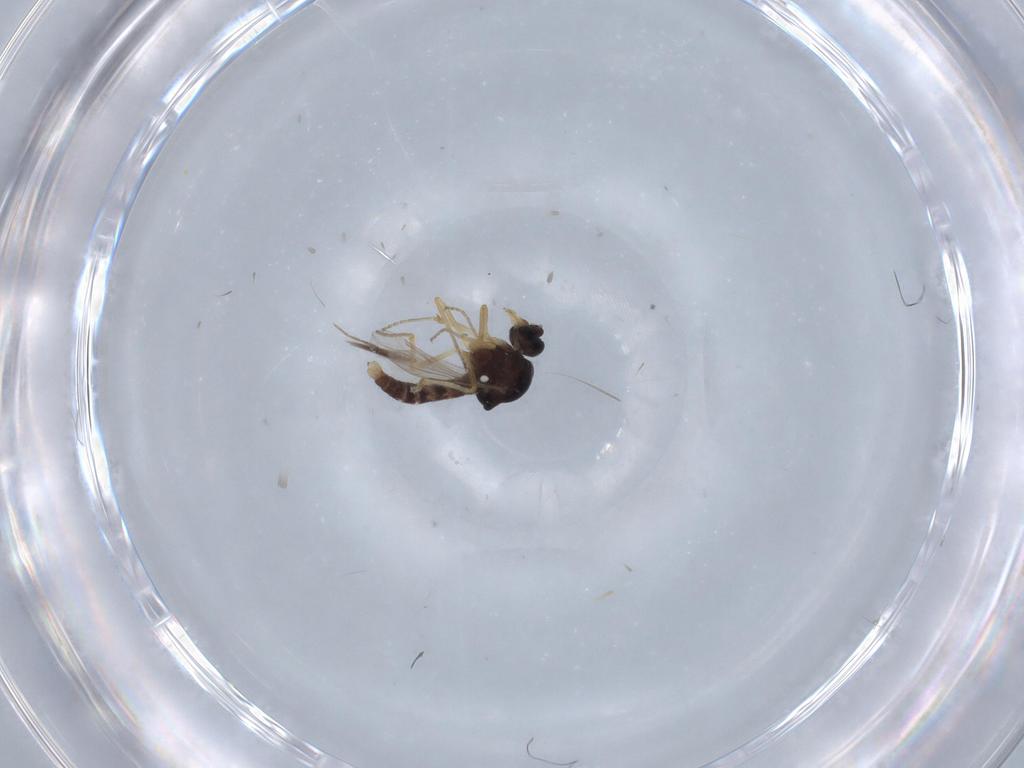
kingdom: Animalia
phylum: Arthropoda
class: Insecta
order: Diptera
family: Ceratopogonidae
